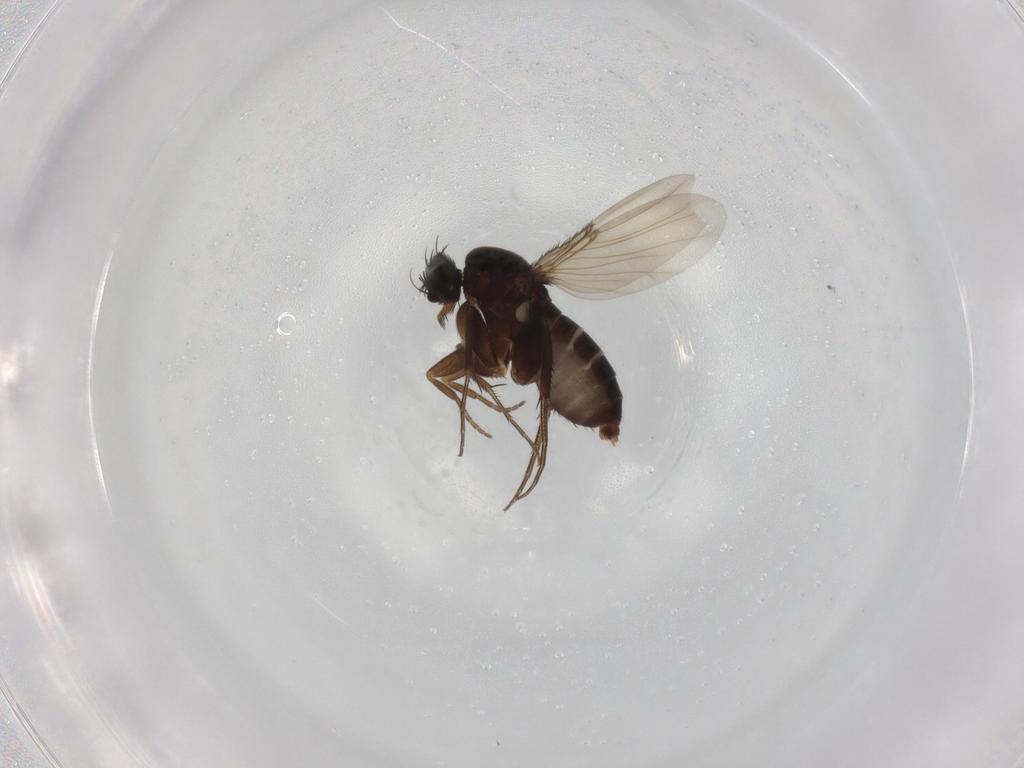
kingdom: Animalia
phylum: Arthropoda
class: Insecta
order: Diptera
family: Phoridae
